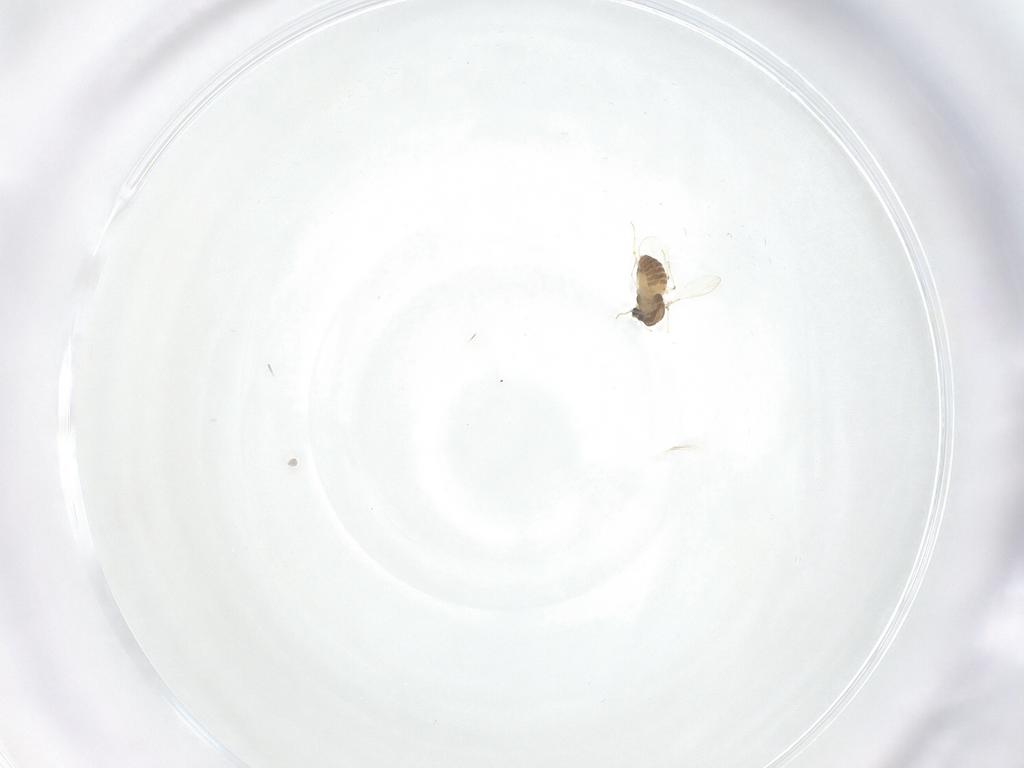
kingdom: Animalia
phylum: Arthropoda
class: Insecta
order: Diptera
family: Chironomidae
